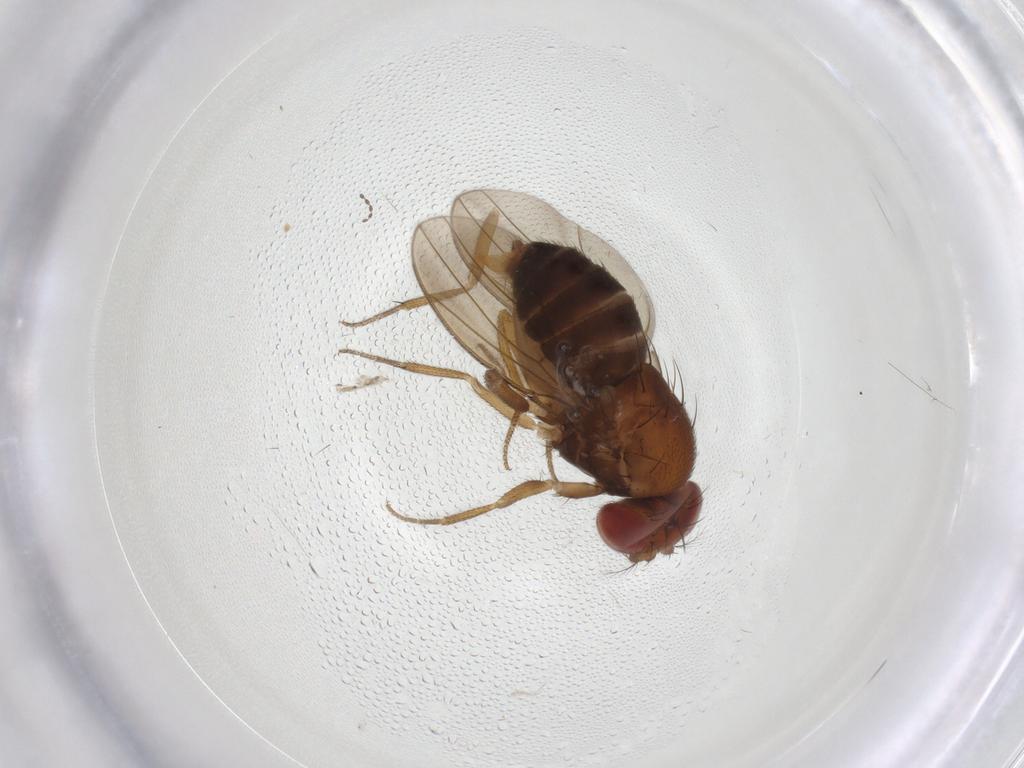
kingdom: Animalia
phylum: Arthropoda
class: Insecta
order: Diptera
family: Drosophilidae
